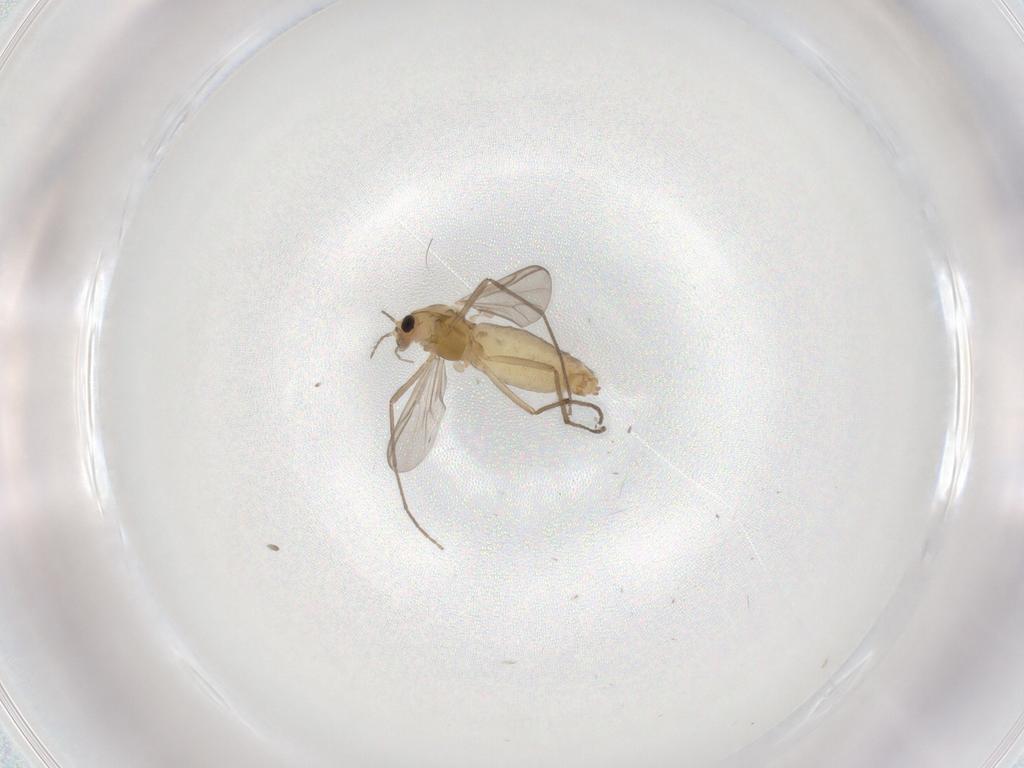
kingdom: Animalia
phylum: Arthropoda
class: Insecta
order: Diptera
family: Chironomidae
